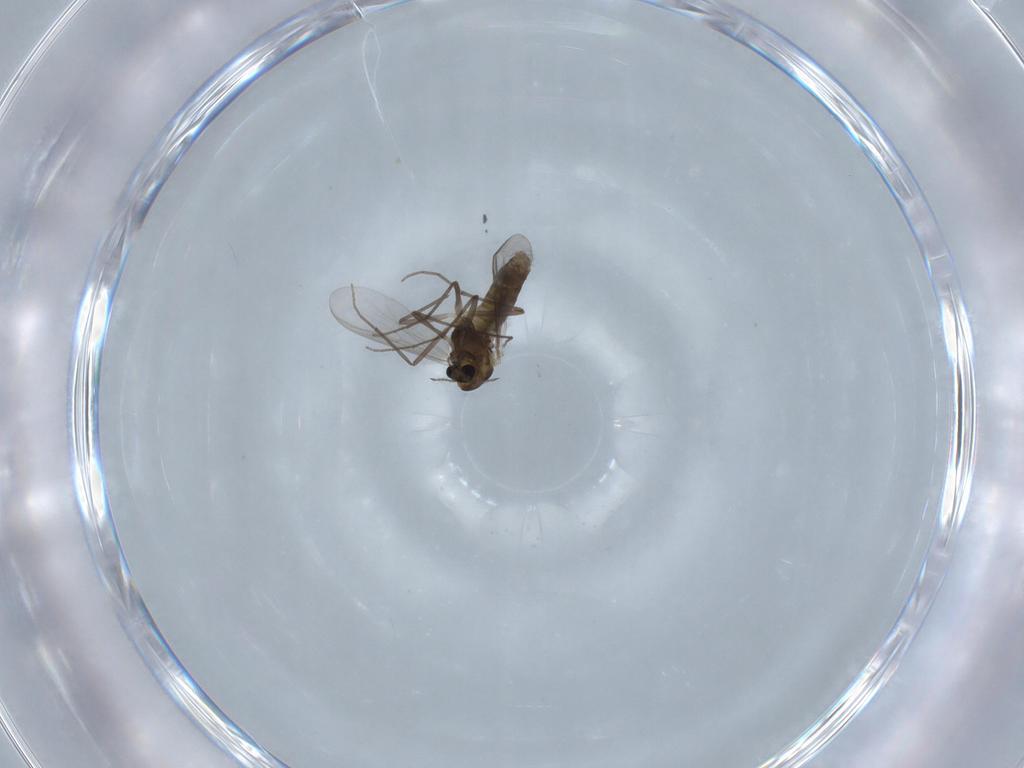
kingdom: Animalia
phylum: Arthropoda
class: Insecta
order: Diptera
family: Chironomidae
